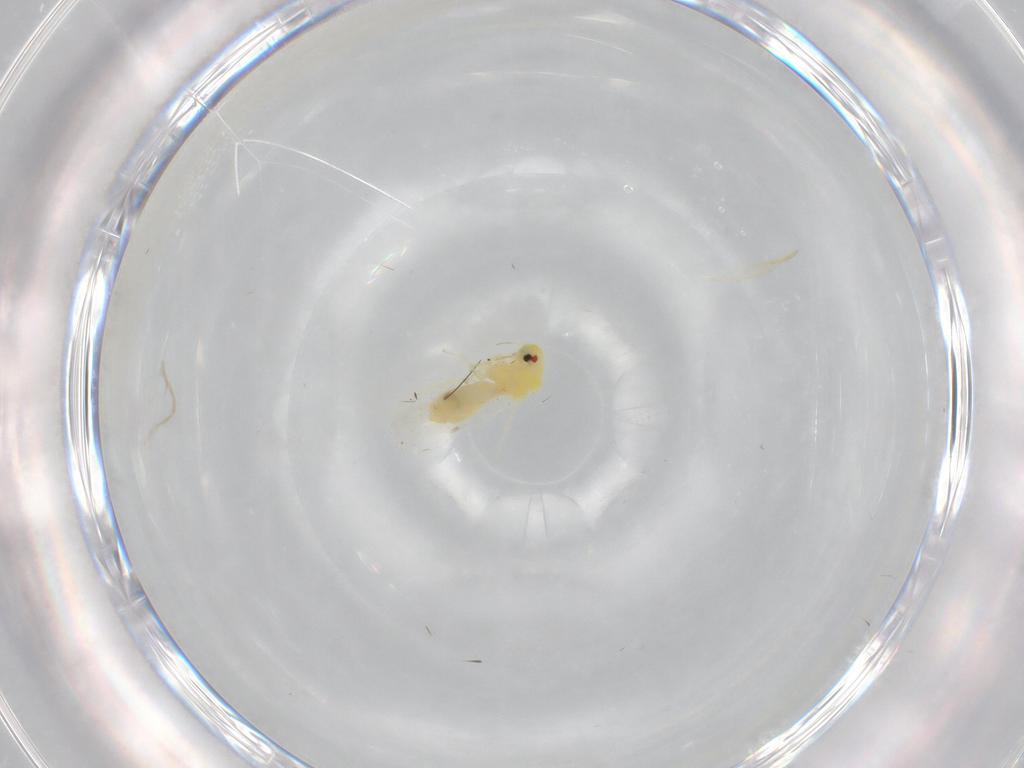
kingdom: Animalia
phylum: Arthropoda
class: Insecta
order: Hemiptera
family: Aleyrodidae
